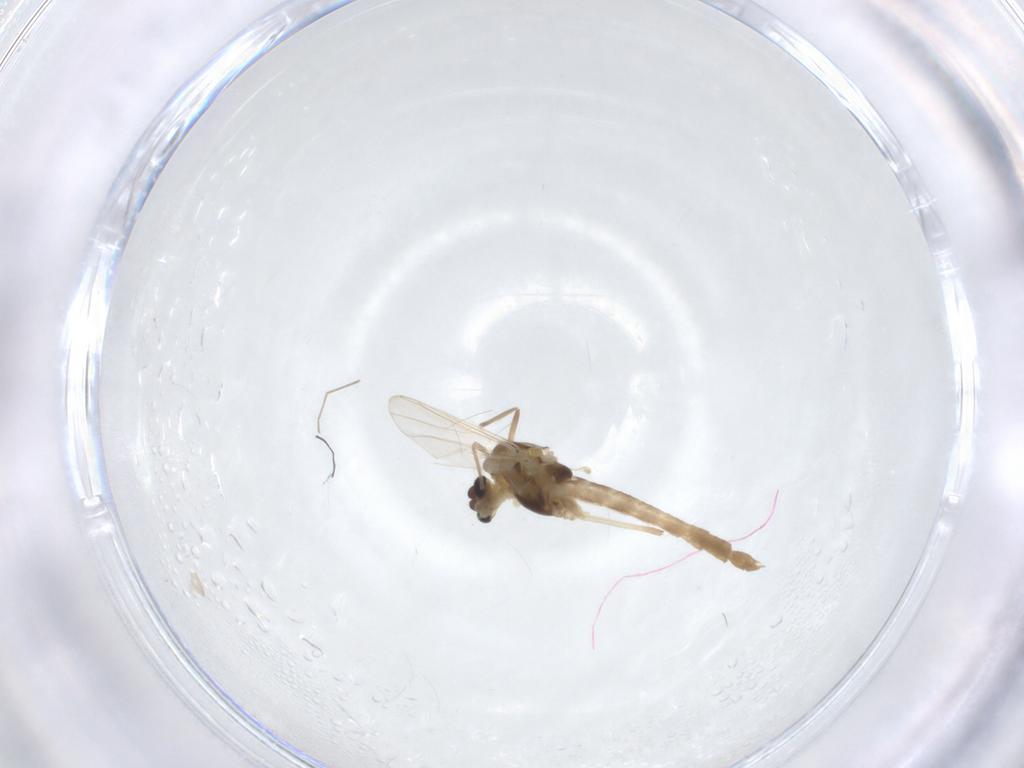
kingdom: Animalia
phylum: Arthropoda
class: Insecta
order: Diptera
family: Chironomidae
